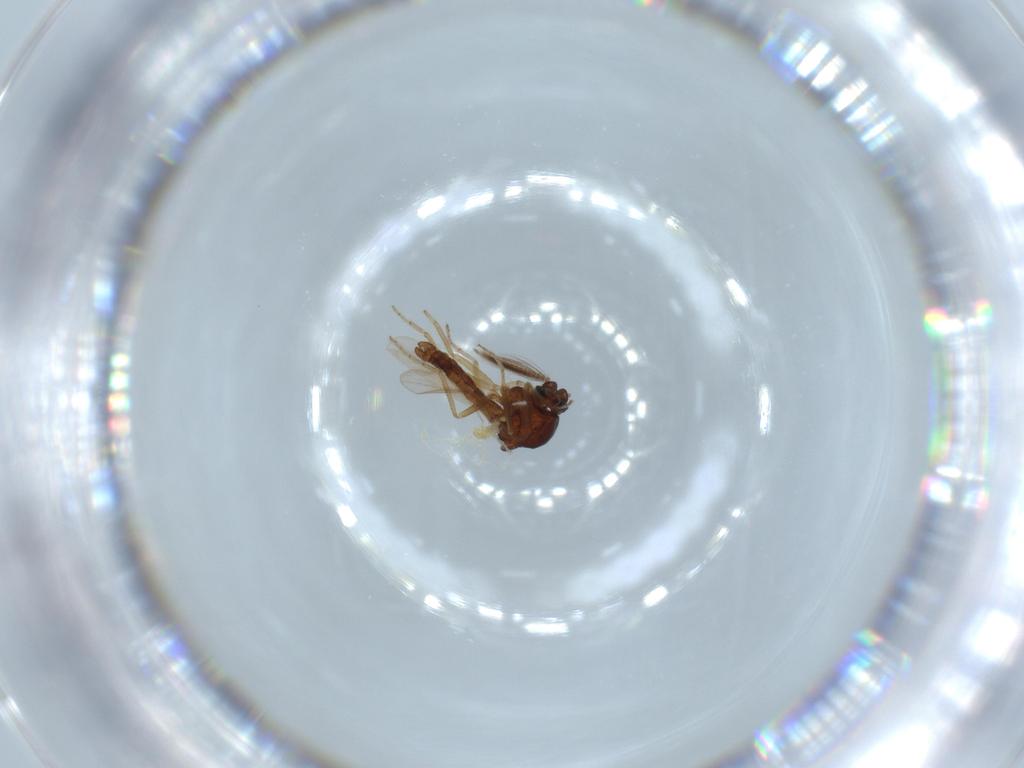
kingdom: Animalia
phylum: Arthropoda
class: Insecta
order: Diptera
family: Ceratopogonidae
